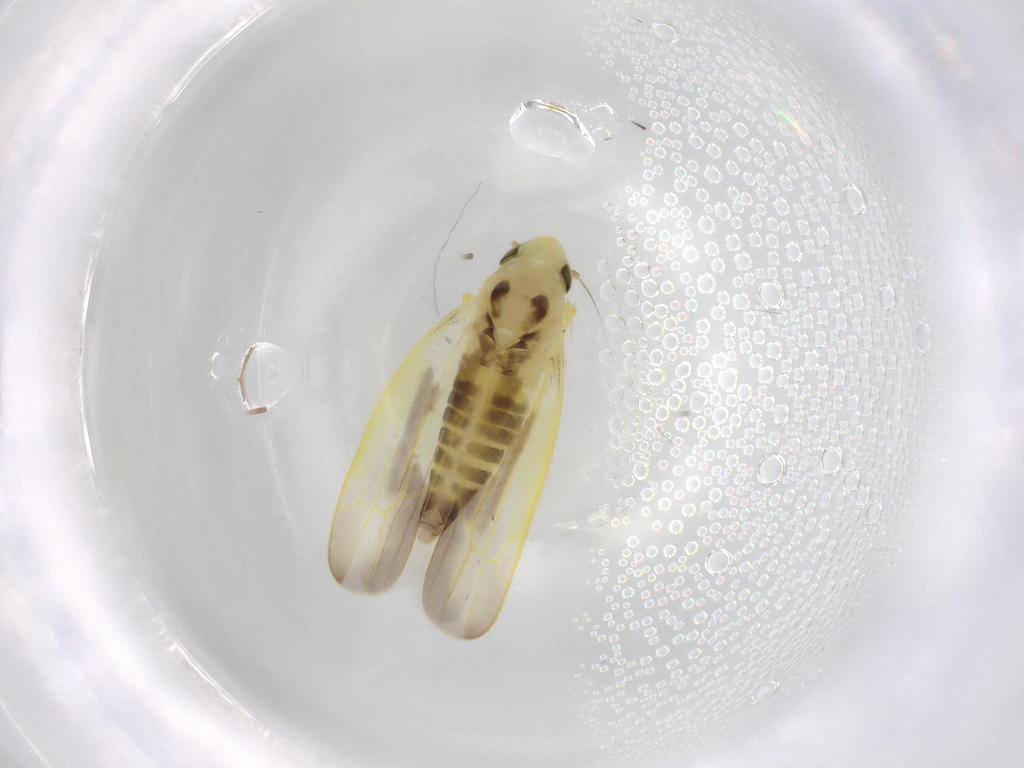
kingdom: Animalia
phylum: Arthropoda
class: Insecta
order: Hemiptera
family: Cicadellidae
